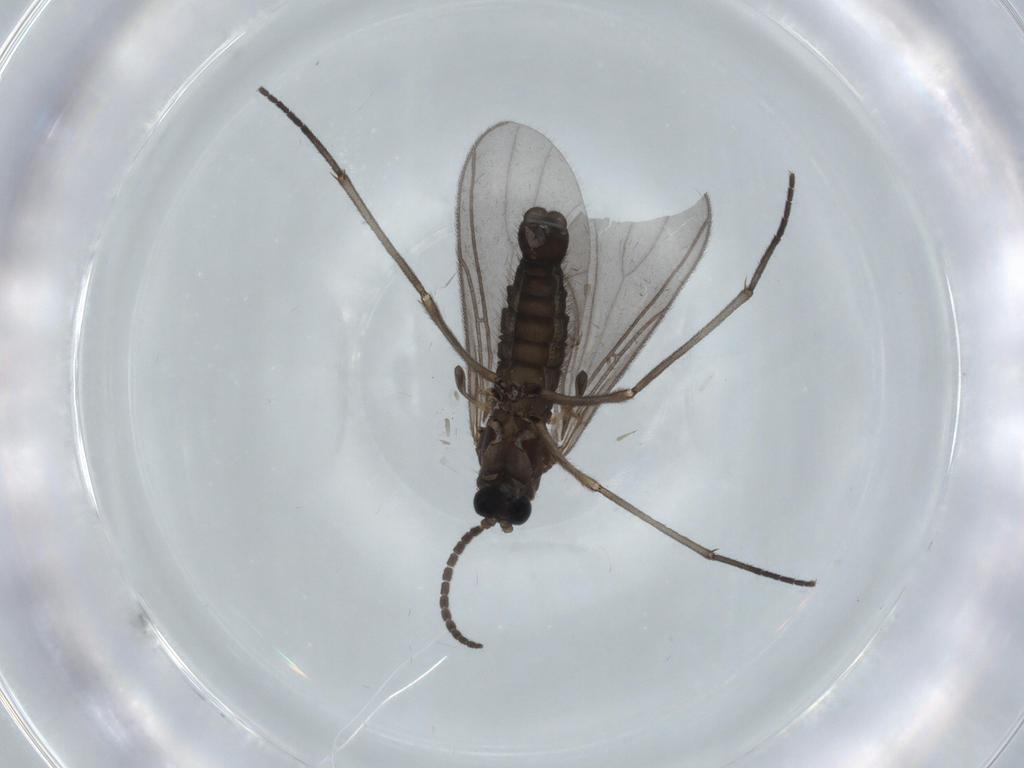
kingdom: Animalia
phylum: Arthropoda
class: Insecta
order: Diptera
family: Sciaridae
